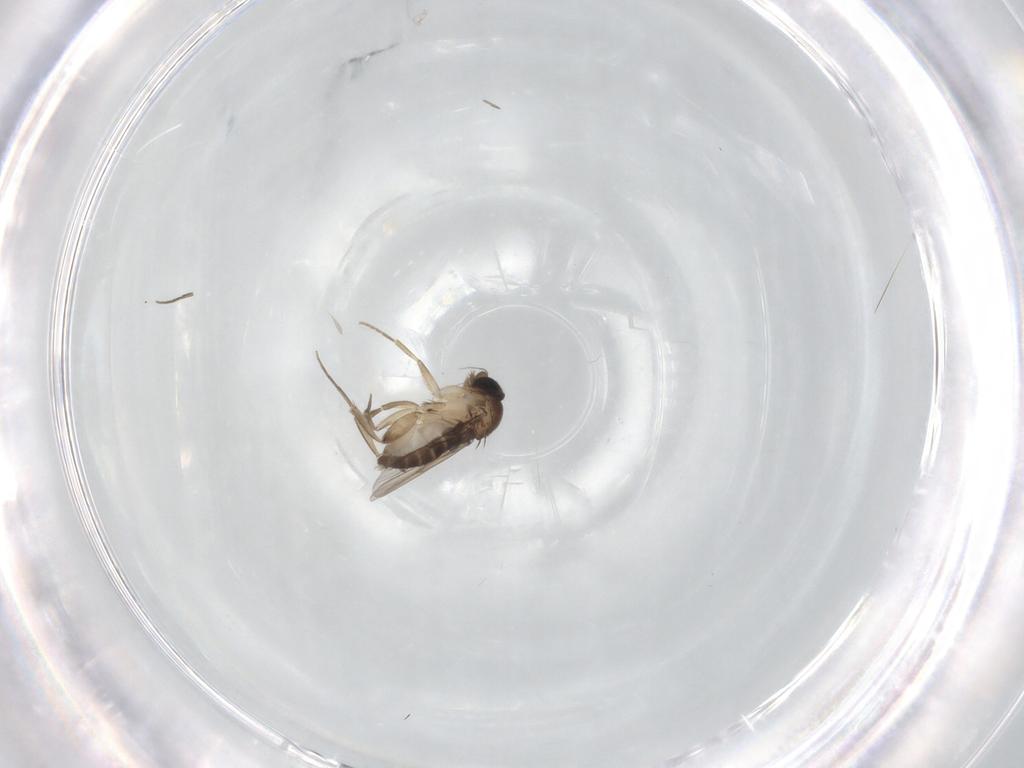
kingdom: Animalia
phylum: Arthropoda
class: Insecta
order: Diptera
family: Phoridae
